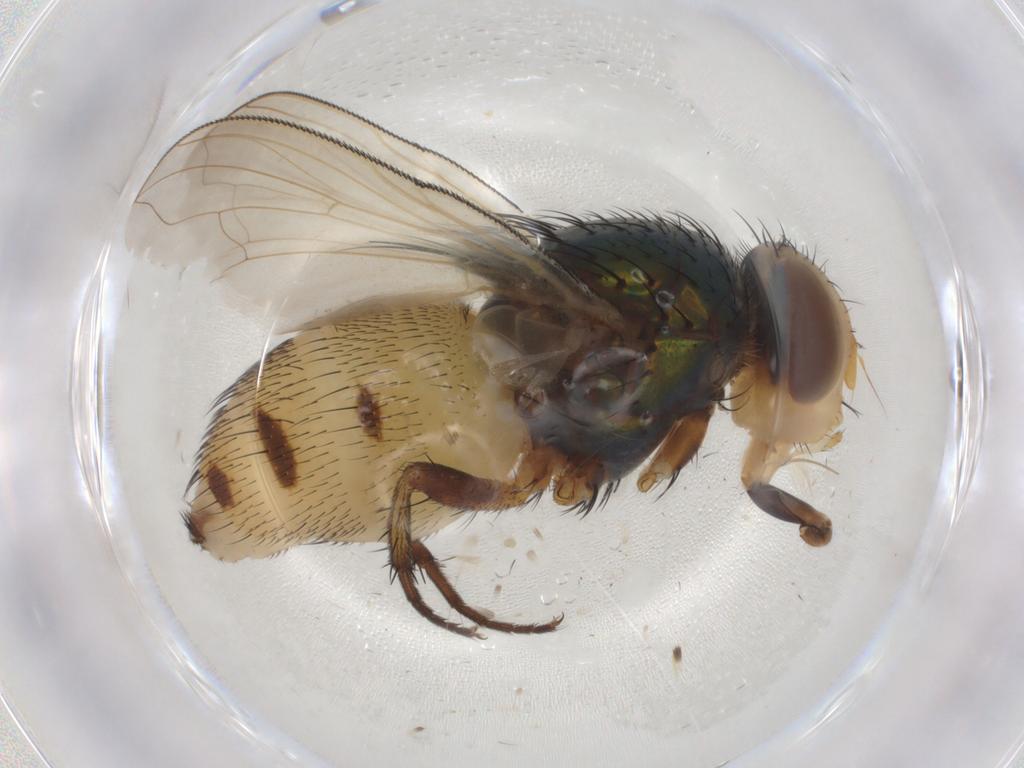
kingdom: Animalia
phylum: Arthropoda
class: Insecta
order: Diptera
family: Calliphoridae
